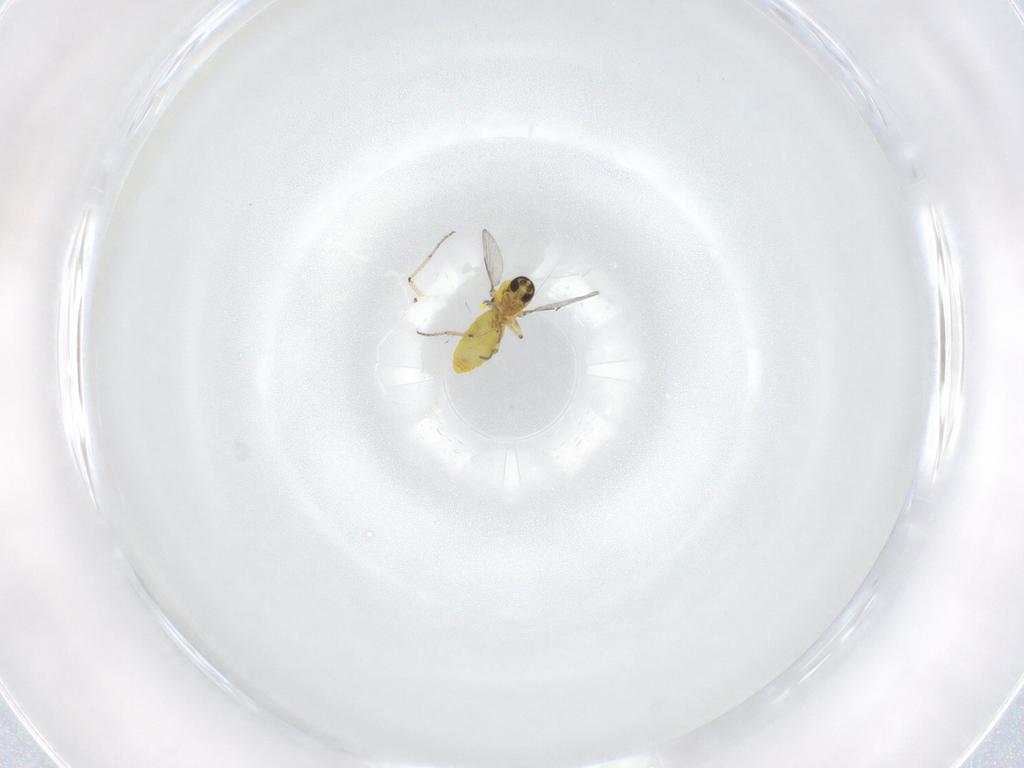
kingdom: Animalia
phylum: Arthropoda
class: Insecta
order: Diptera
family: Ceratopogonidae
